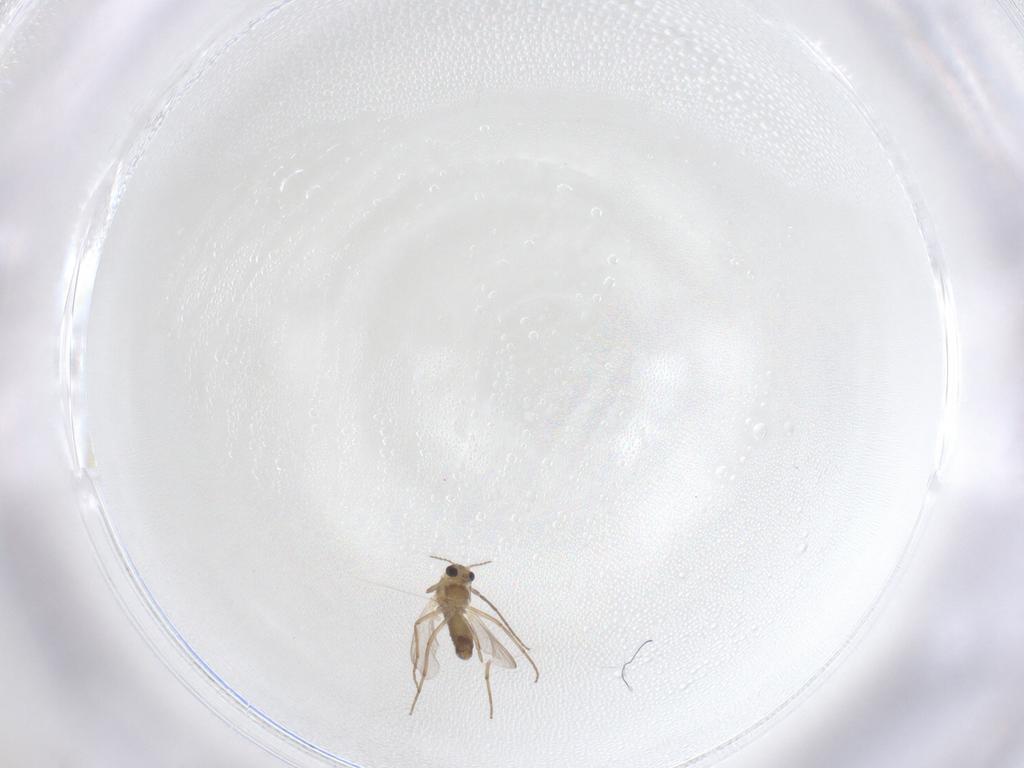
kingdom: Animalia
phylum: Arthropoda
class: Insecta
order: Diptera
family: Chironomidae
